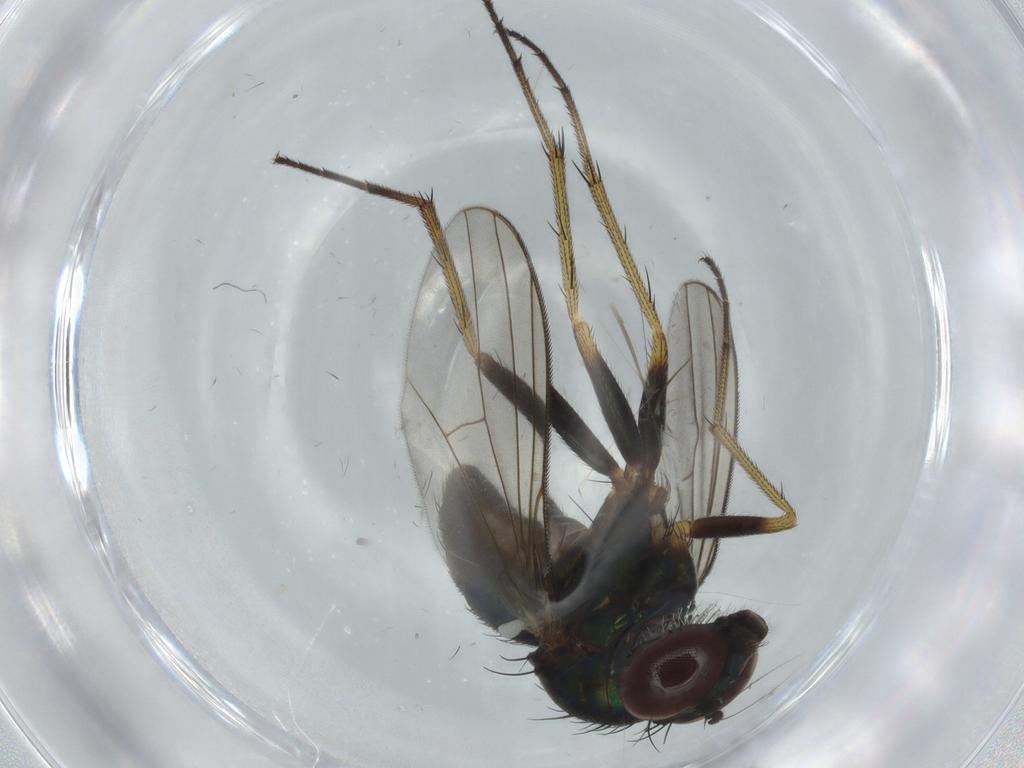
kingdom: Animalia
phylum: Arthropoda
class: Insecta
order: Diptera
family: Dolichopodidae
